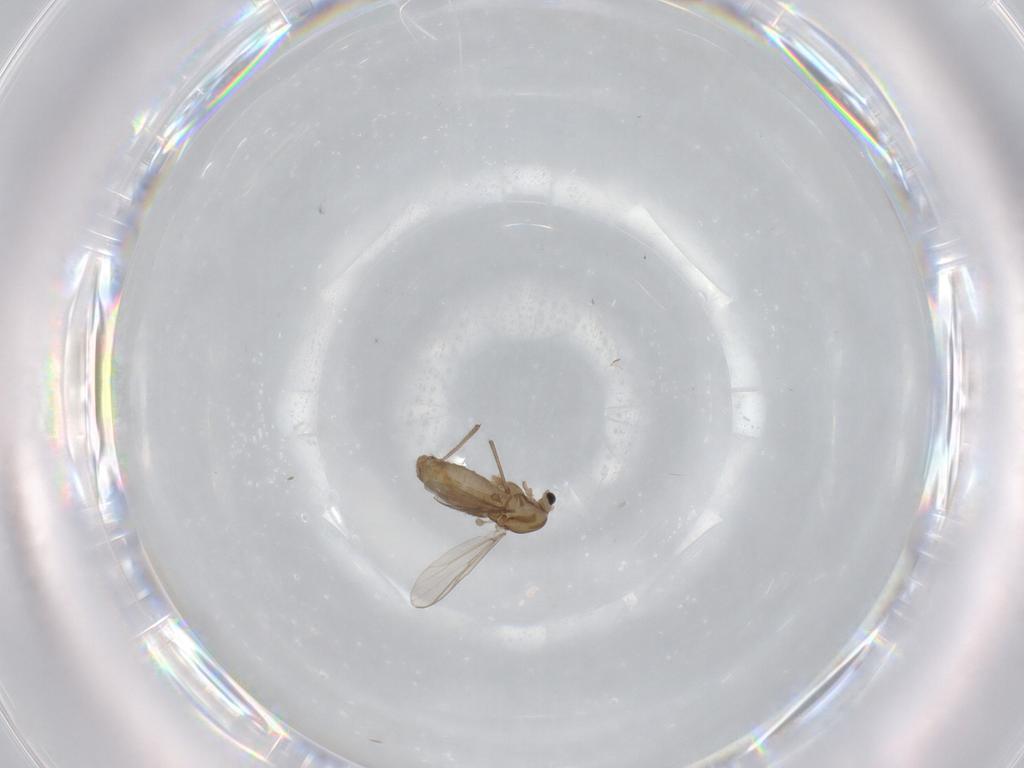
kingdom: Animalia
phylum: Arthropoda
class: Insecta
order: Diptera
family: Chironomidae
